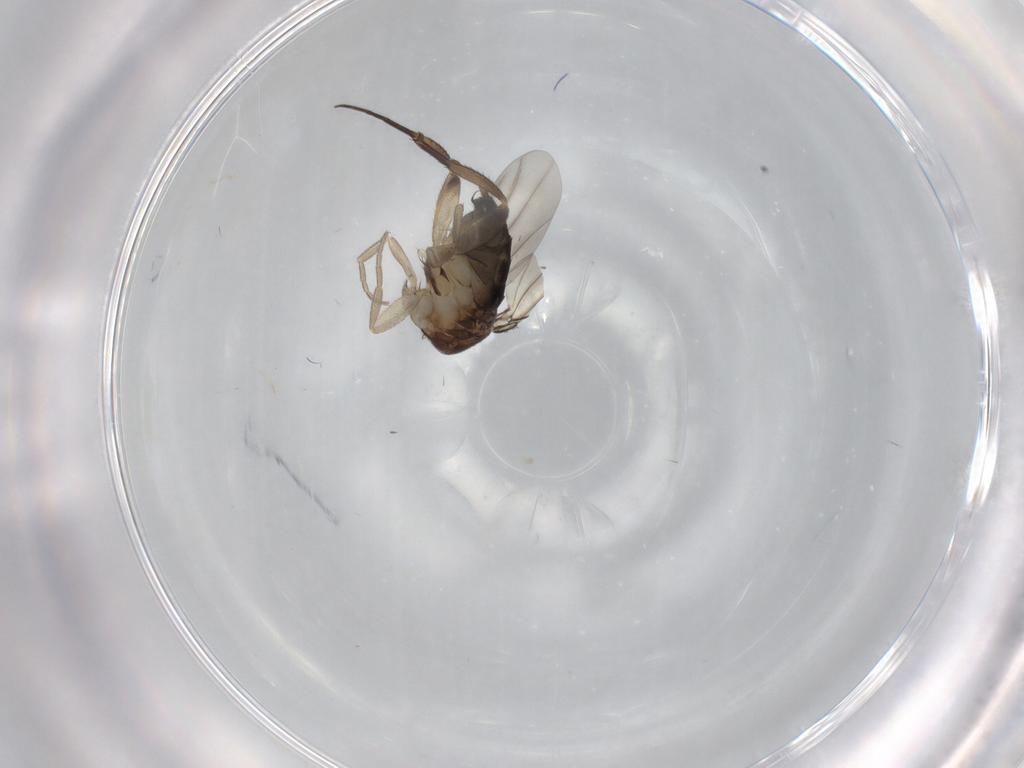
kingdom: Animalia
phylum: Arthropoda
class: Insecta
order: Diptera
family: Phoridae
